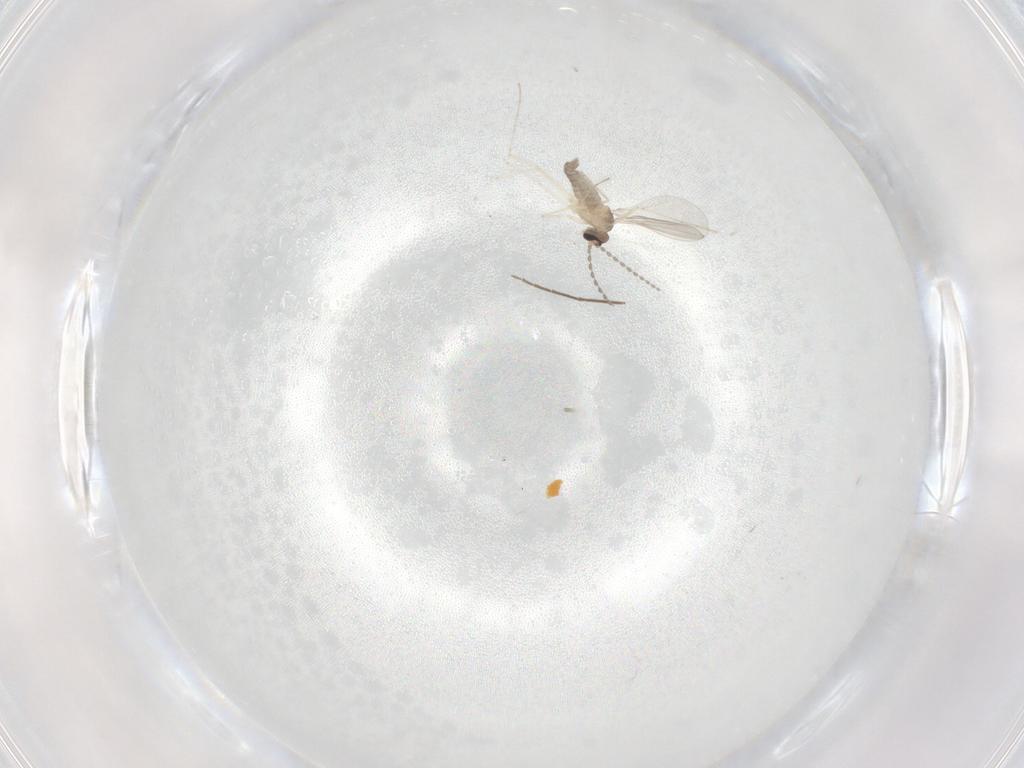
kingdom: Animalia
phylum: Arthropoda
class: Insecta
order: Diptera
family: Cecidomyiidae
